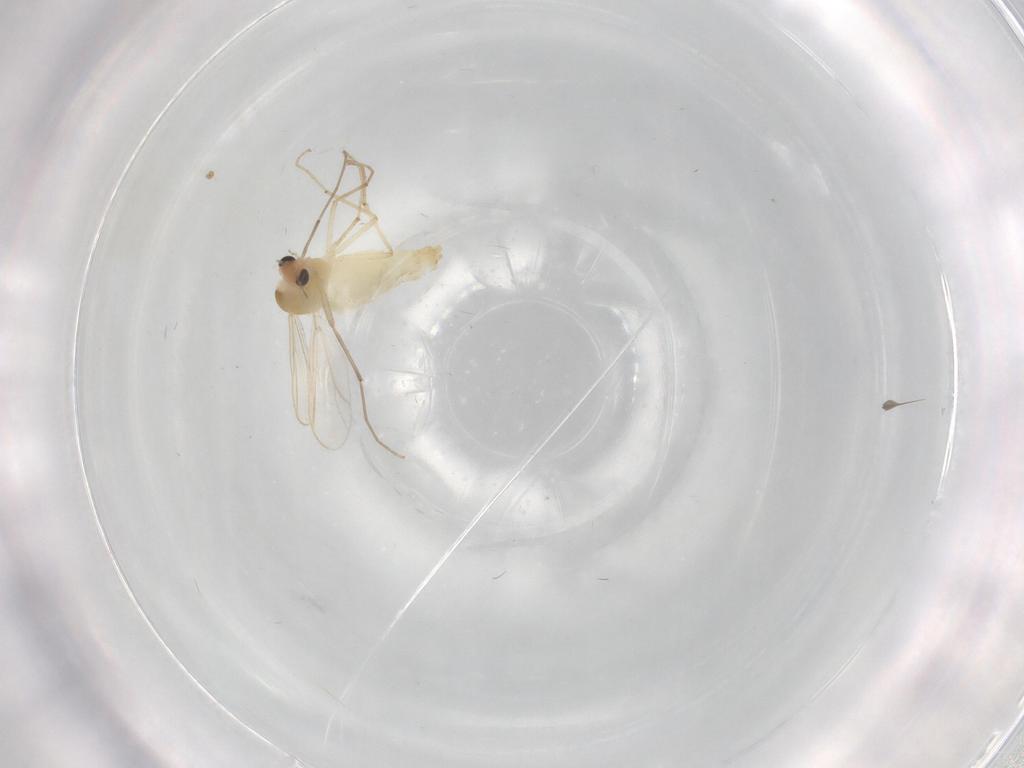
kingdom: Animalia
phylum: Arthropoda
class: Insecta
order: Diptera
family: Chironomidae
